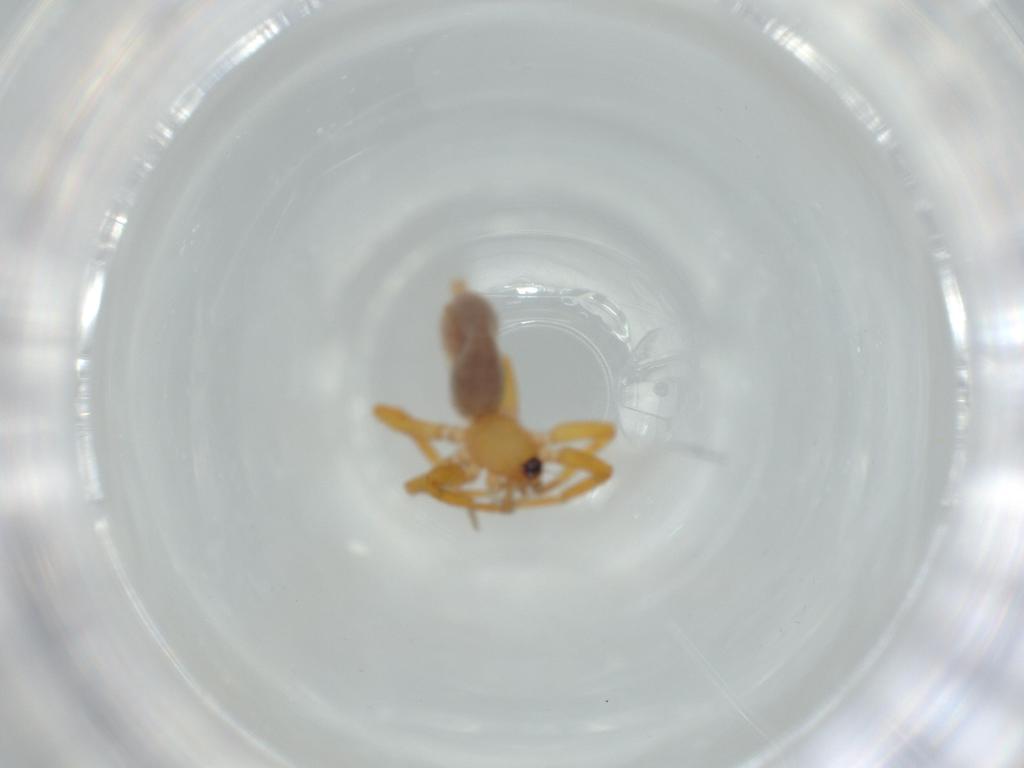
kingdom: Animalia
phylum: Arthropoda
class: Arachnida
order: Araneae
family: Oonopidae
